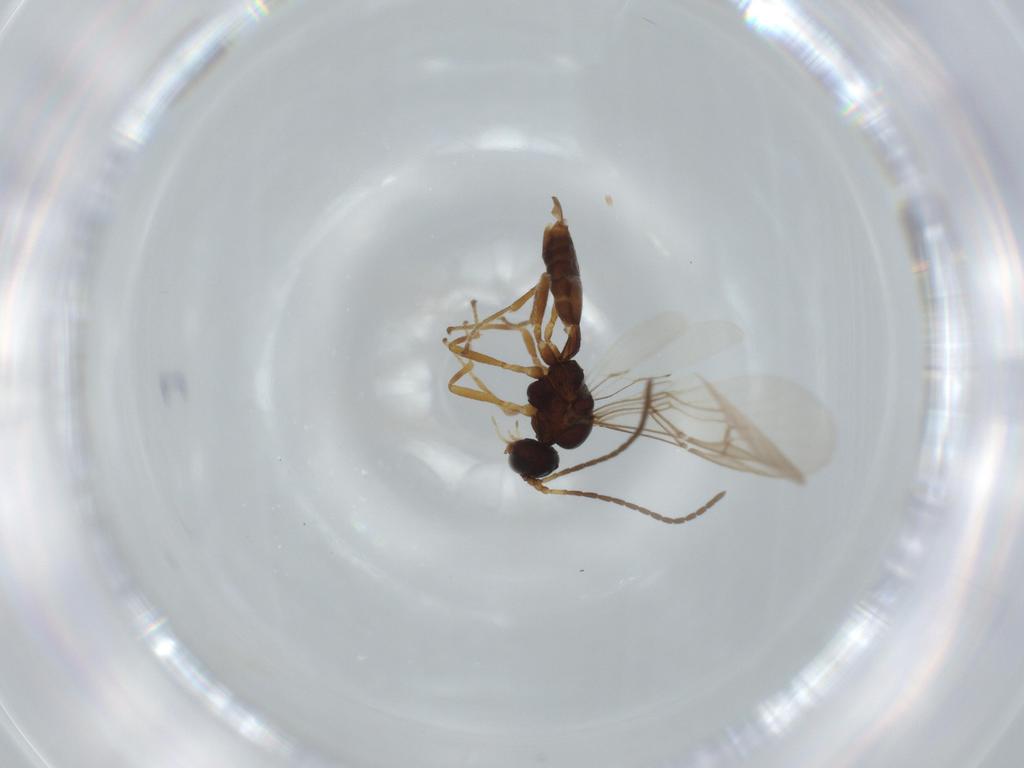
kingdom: Animalia
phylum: Arthropoda
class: Insecta
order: Hymenoptera
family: Braconidae
